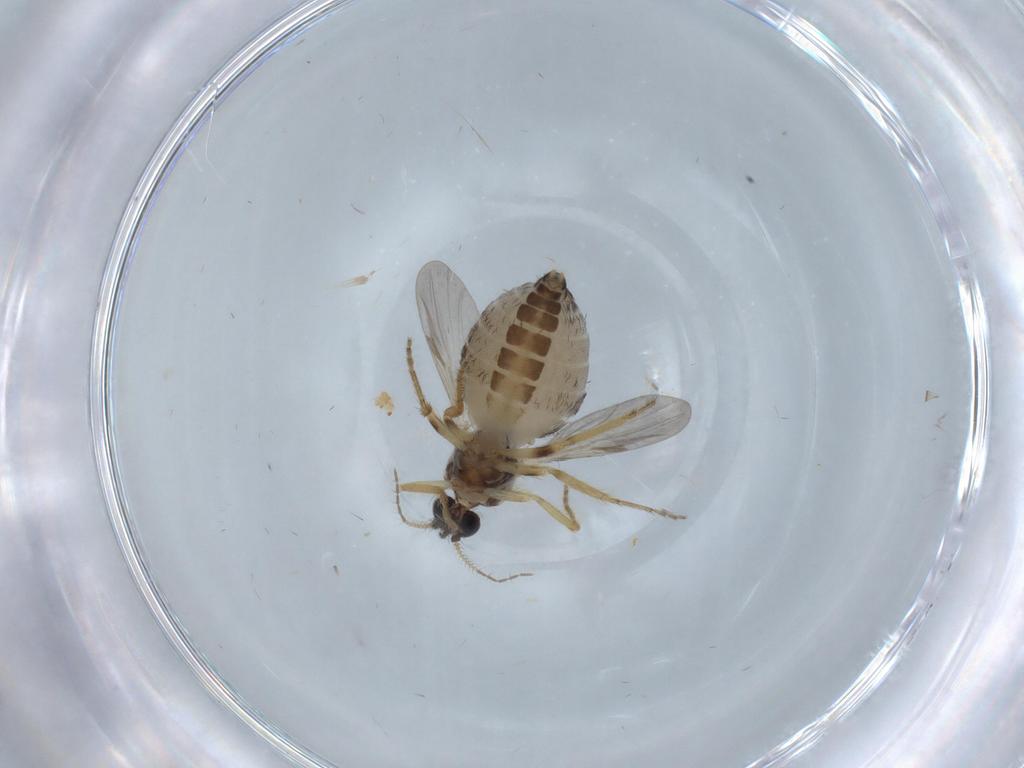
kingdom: Animalia
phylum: Arthropoda
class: Insecta
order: Diptera
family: Ceratopogonidae
